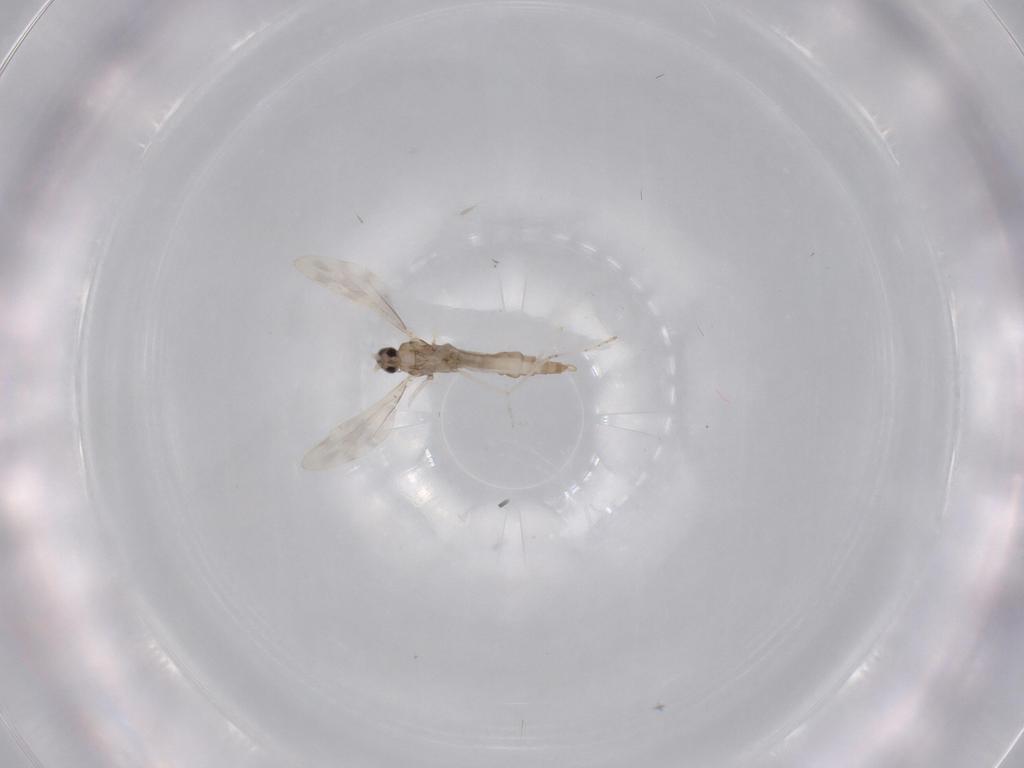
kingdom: Animalia
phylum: Arthropoda
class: Insecta
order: Diptera
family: Cecidomyiidae
